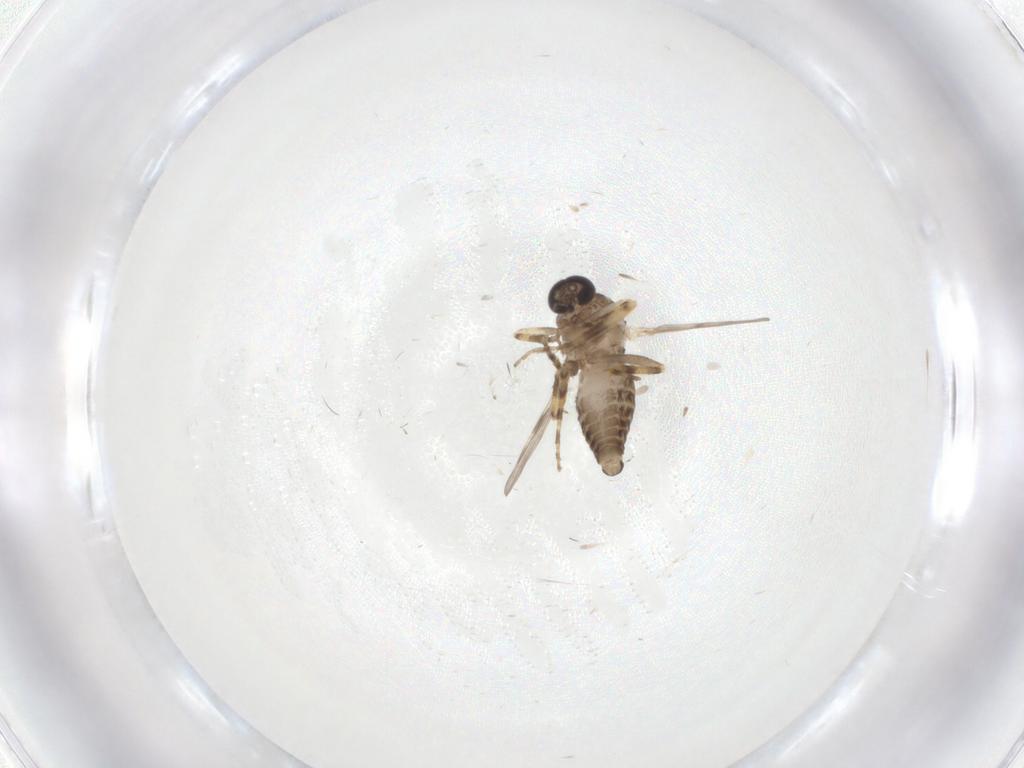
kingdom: Animalia
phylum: Arthropoda
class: Insecta
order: Diptera
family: Ceratopogonidae
